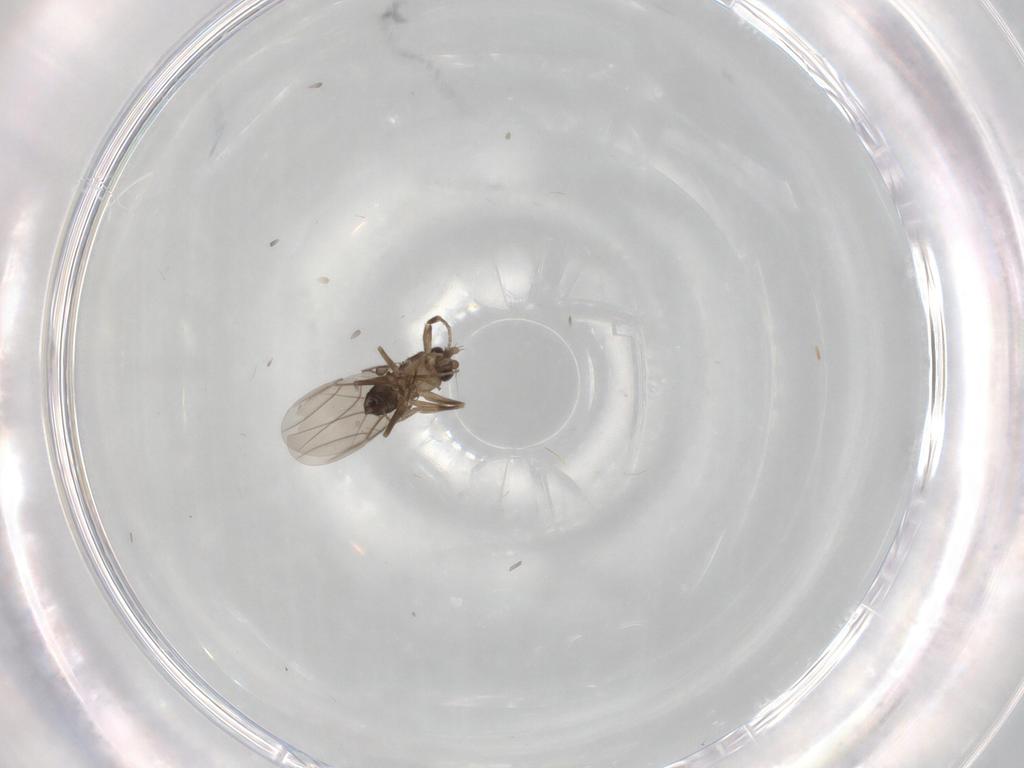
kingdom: Animalia
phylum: Arthropoda
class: Insecta
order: Diptera
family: Phoridae
